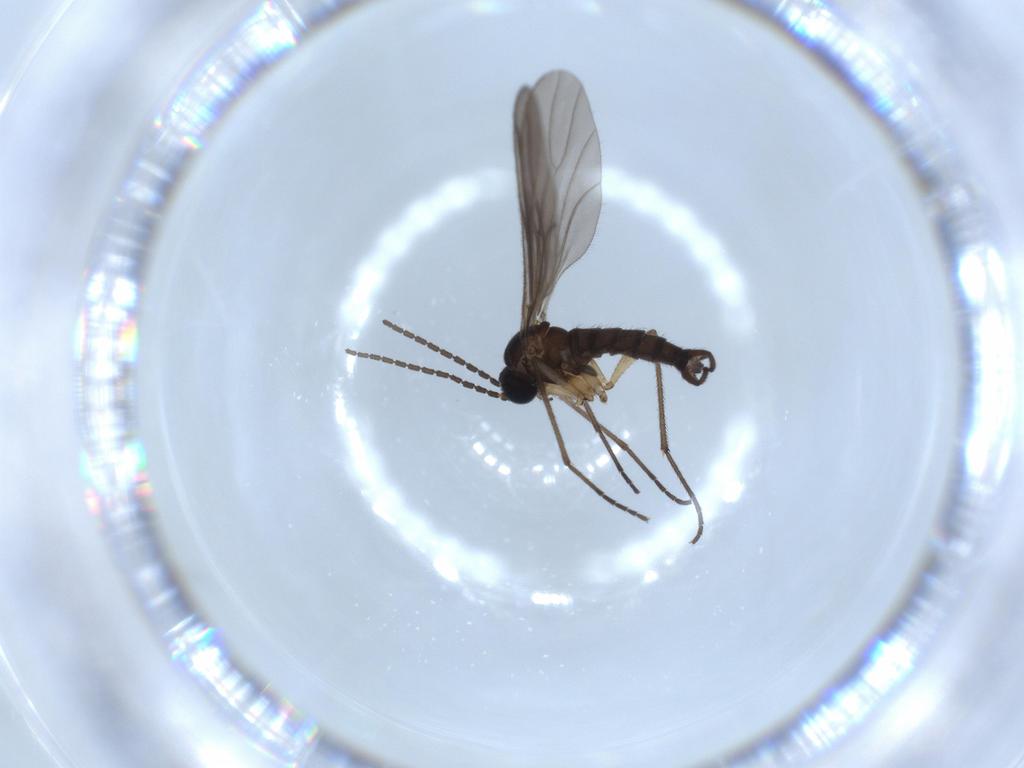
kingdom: Animalia
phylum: Arthropoda
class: Insecta
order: Diptera
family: Sciaridae
